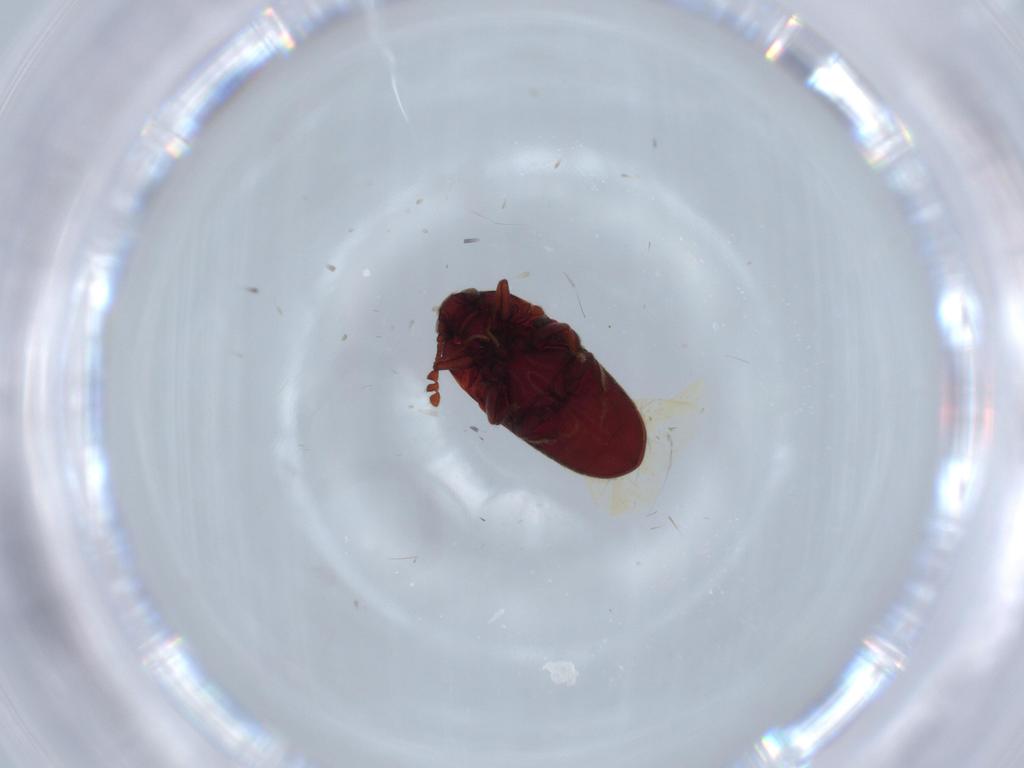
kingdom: Animalia
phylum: Arthropoda
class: Insecta
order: Coleoptera
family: Throscidae
